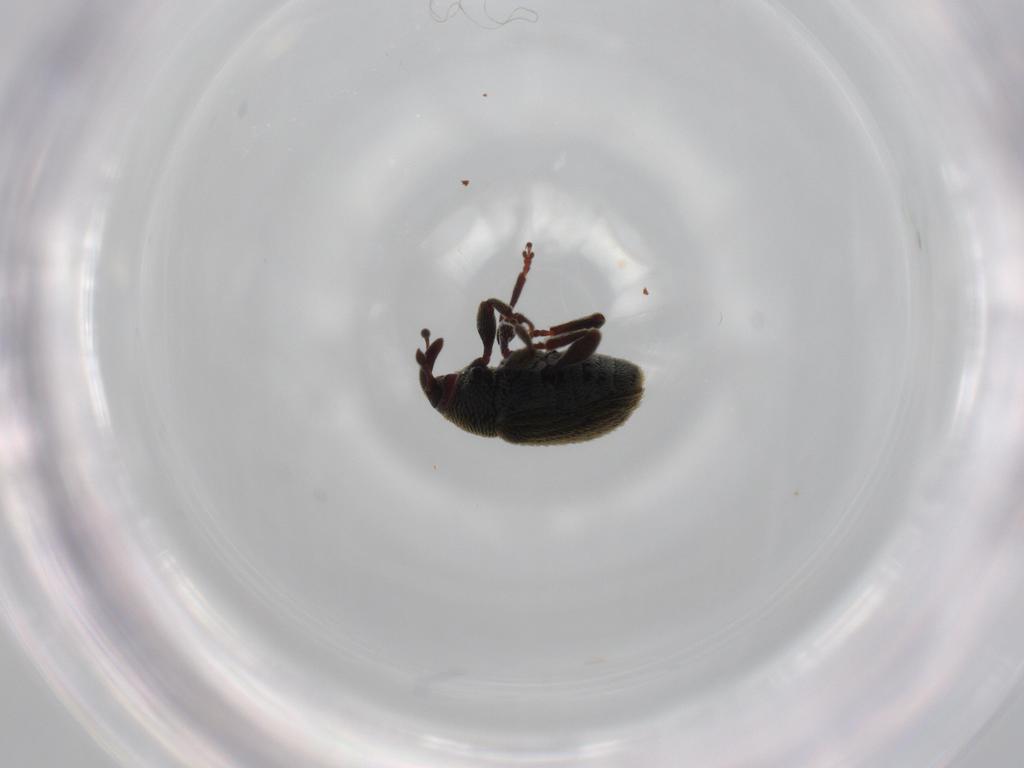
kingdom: Animalia
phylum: Arthropoda
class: Insecta
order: Coleoptera
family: Curculionidae
